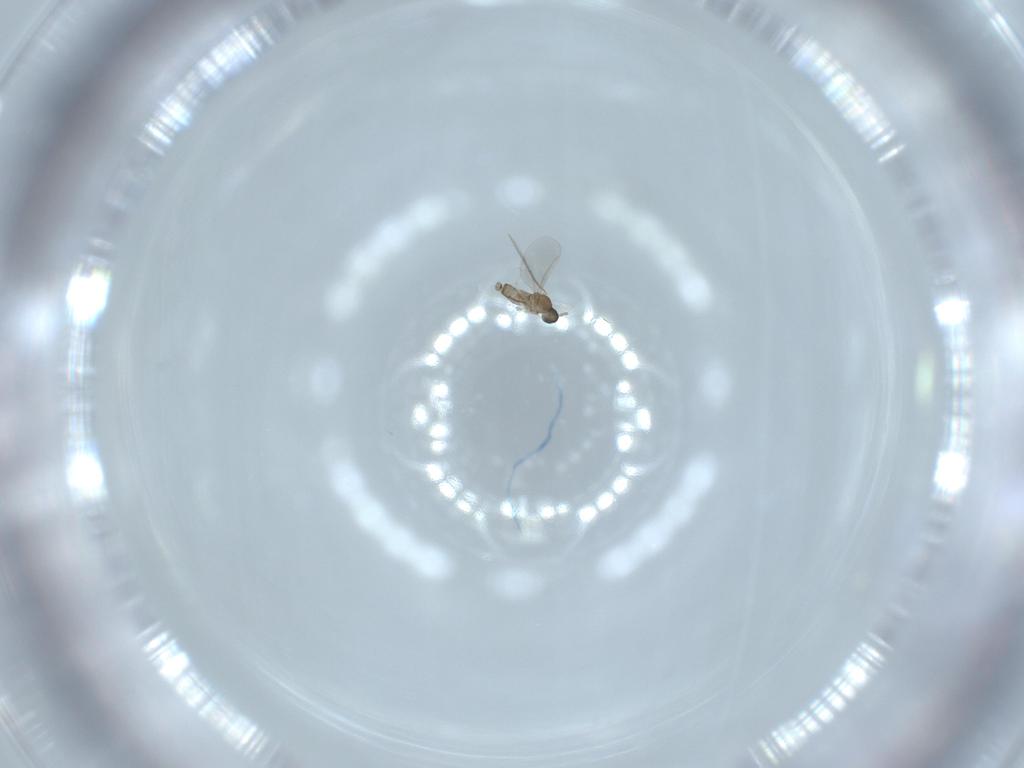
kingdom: Animalia
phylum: Arthropoda
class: Insecta
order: Diptera
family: Cecidomyiidae
